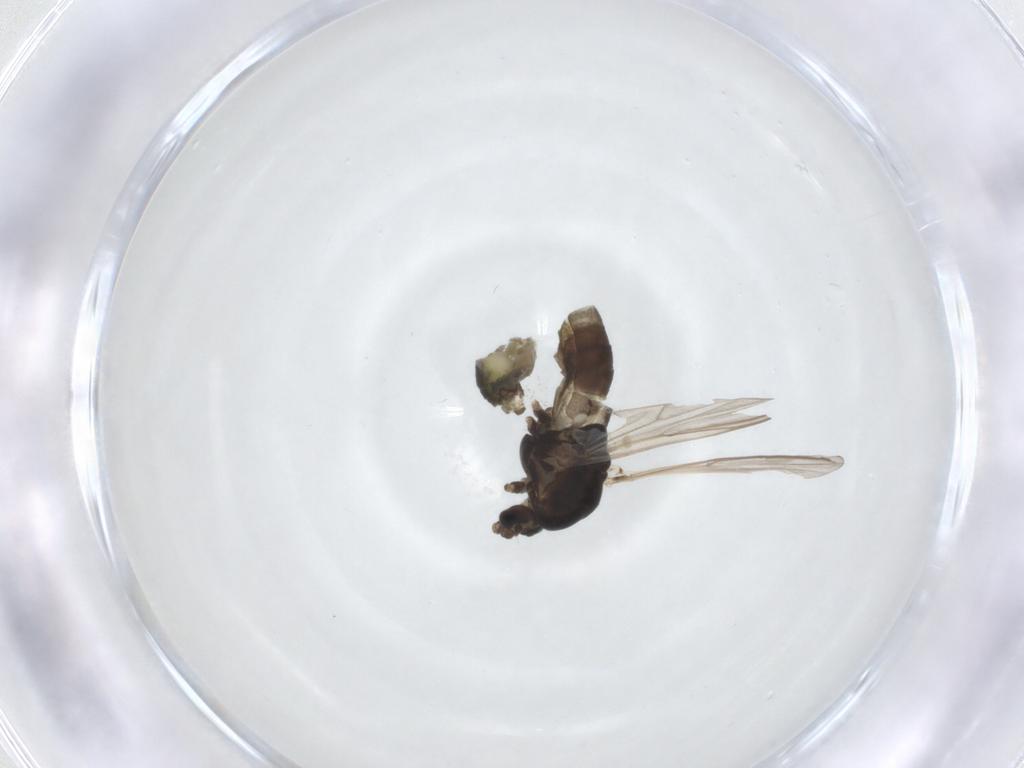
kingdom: Animalia
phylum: Arthropoda
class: Insecta
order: Diptera
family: Chironomidae
